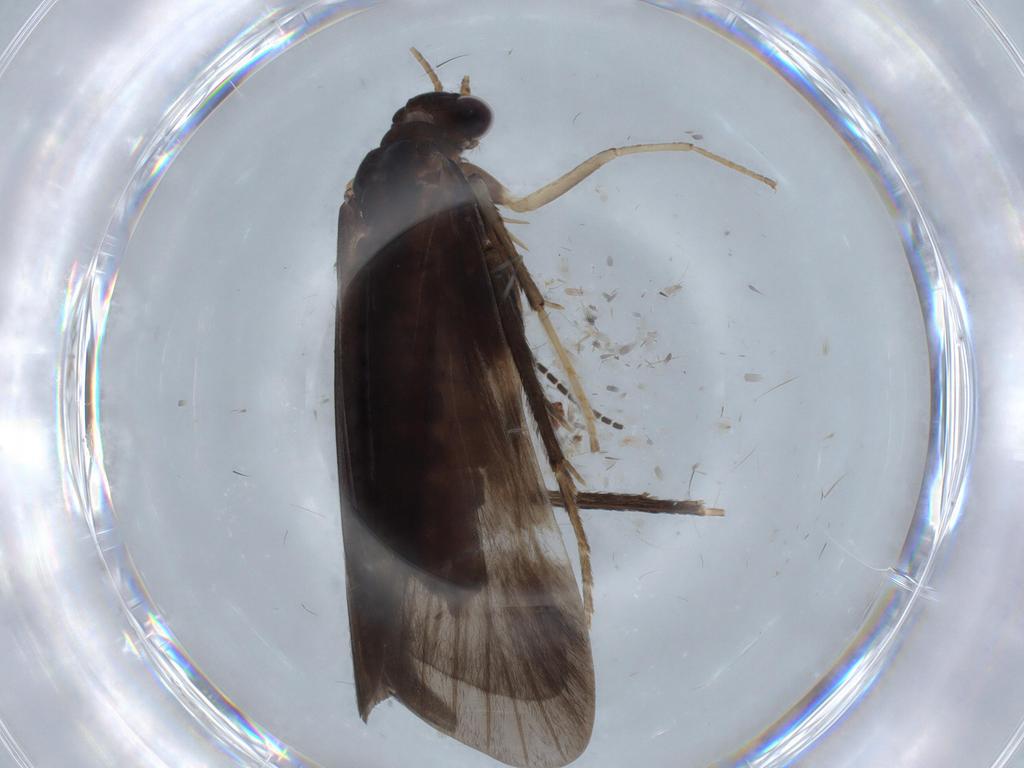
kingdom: Animalia
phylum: Arthropoda
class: Insecta
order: Trichoptera
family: Hydropsychidae
